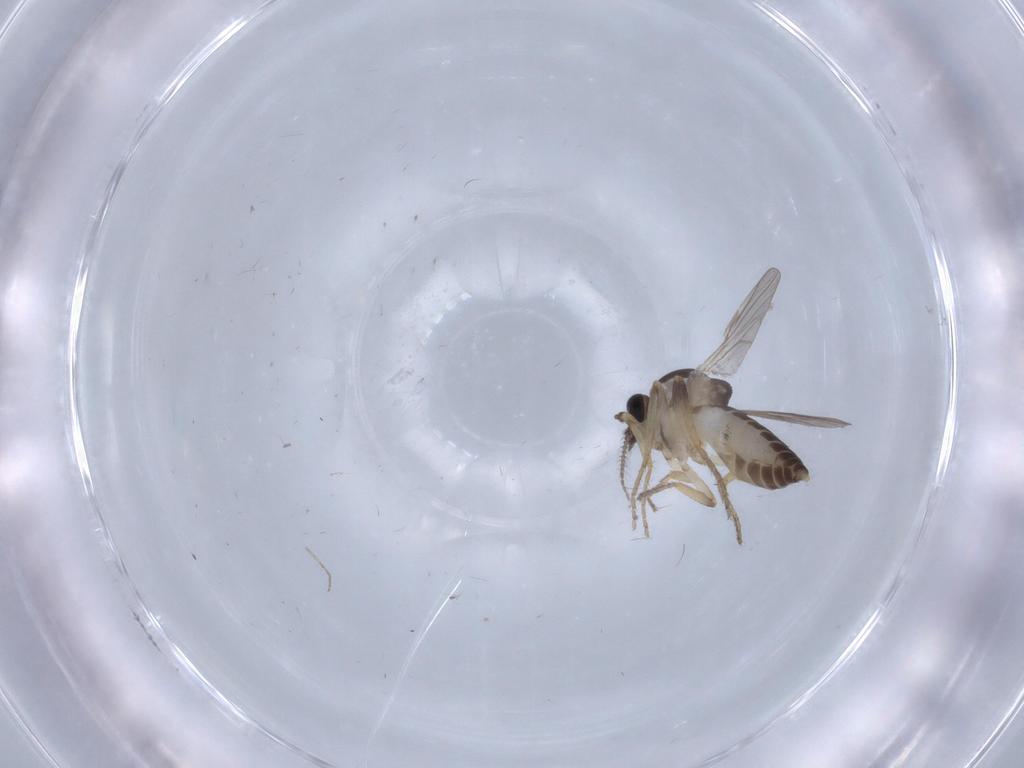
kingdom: Animalia
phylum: Arthropoda
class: Insecta
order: Diptera
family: Ceratopogonidae
